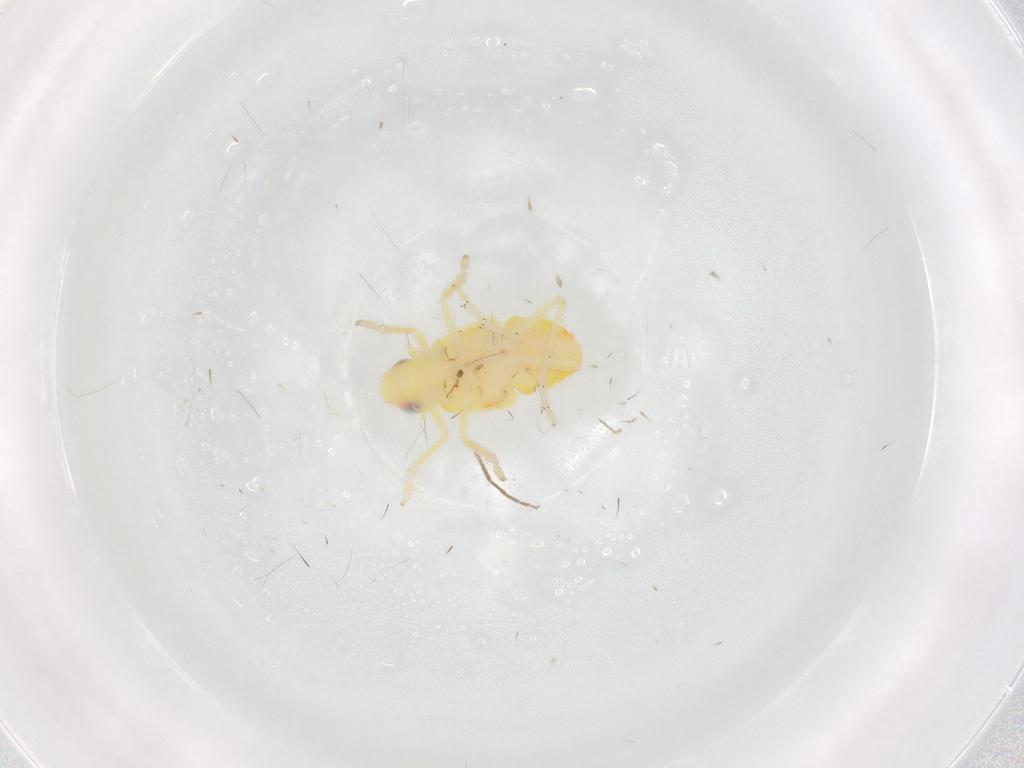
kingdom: Animalia
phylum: Arthropoda
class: Insecta
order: Hemiptera
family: Tropiduchidae
